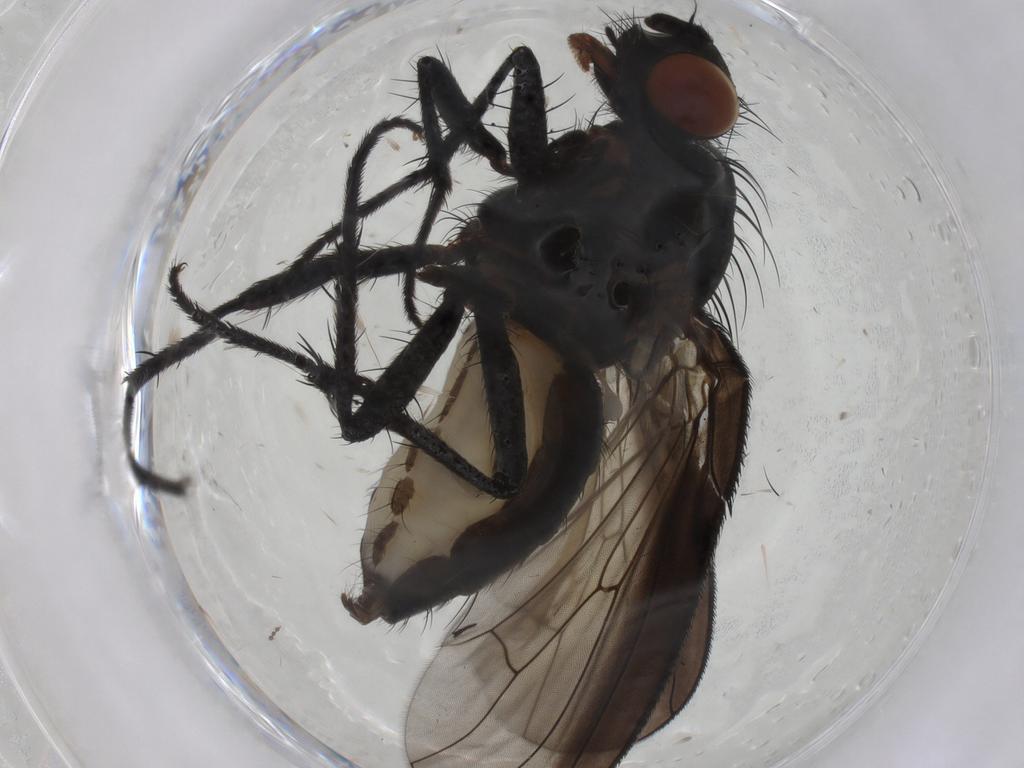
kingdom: Animalia
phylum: Arthropoda
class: Insecta
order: Diptera
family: Anthomyiidae
